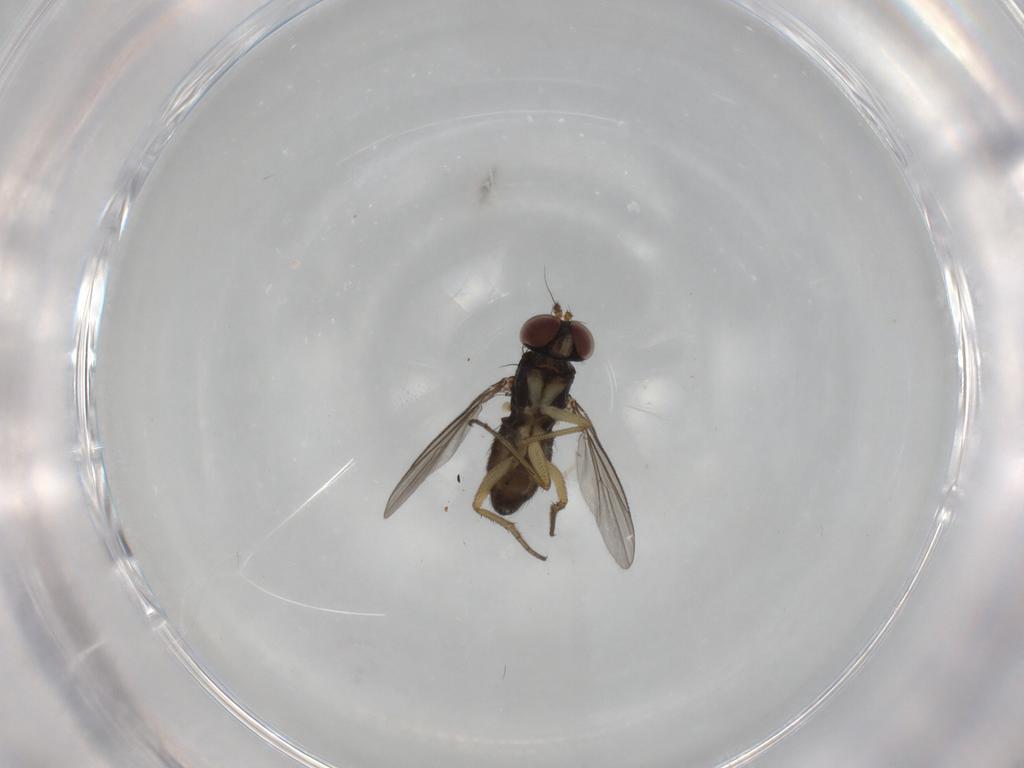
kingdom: Animalia
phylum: Arthropoda
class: Insecta
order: Diptera
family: Dolichopodidae
